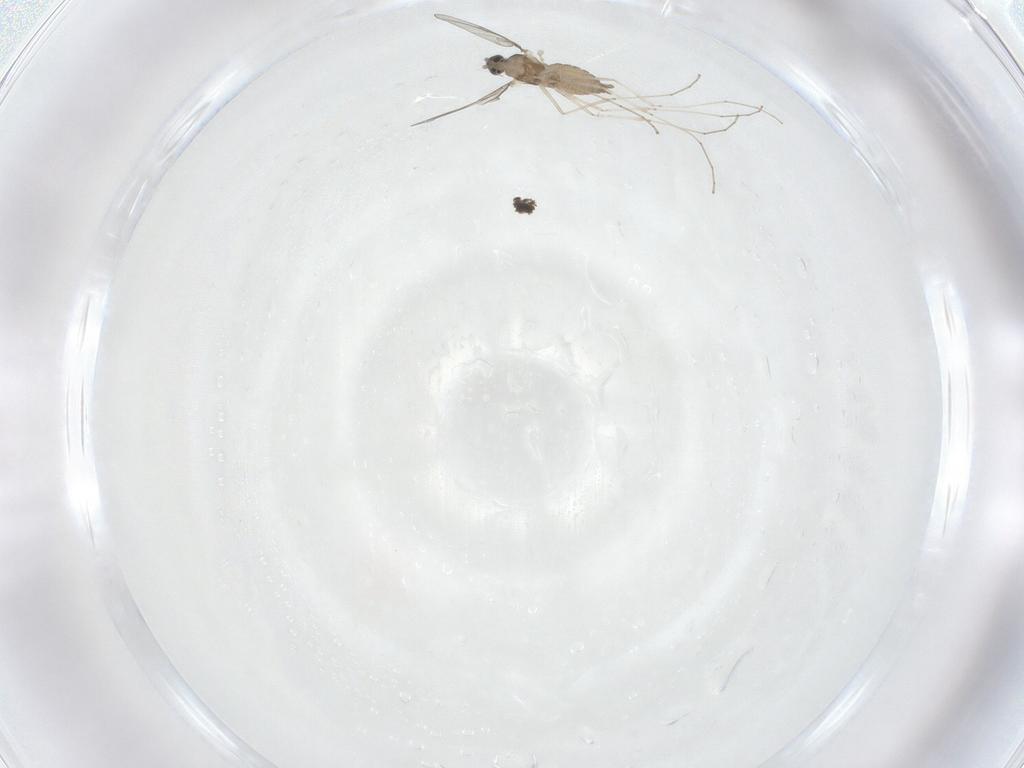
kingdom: Animalia
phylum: Arthropoda
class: Insecta
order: Diptera
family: Cecidomyiidae
